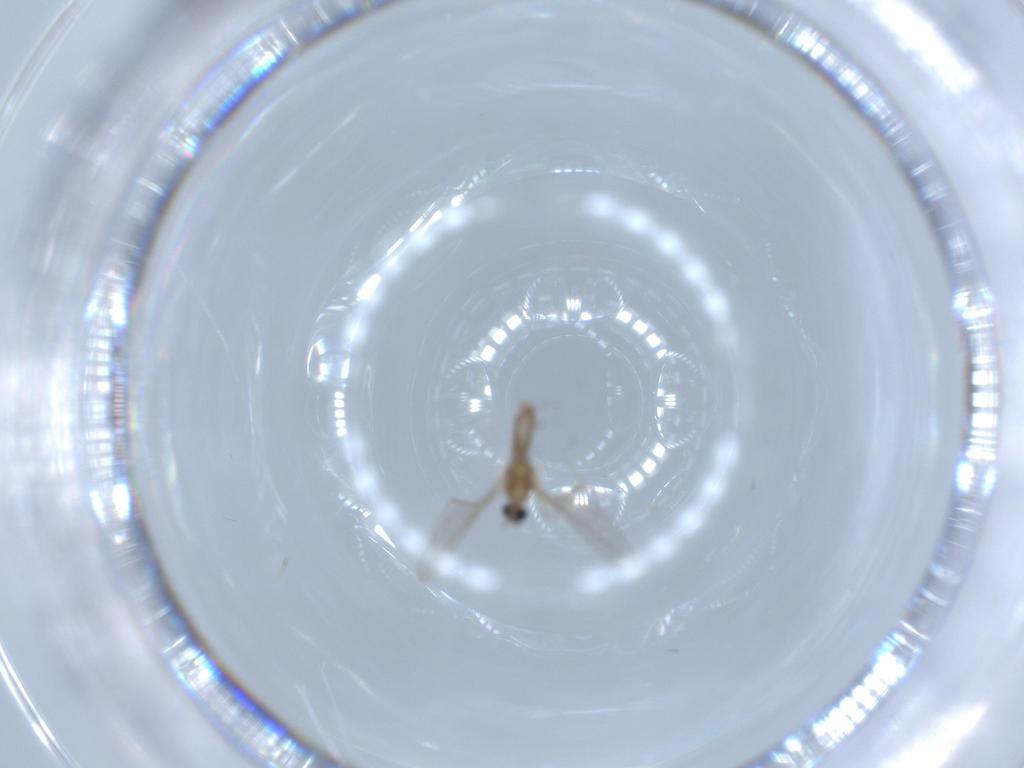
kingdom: Animalia
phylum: Arthropoda
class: Insecta
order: Diptera
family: Cecidomyiidae
